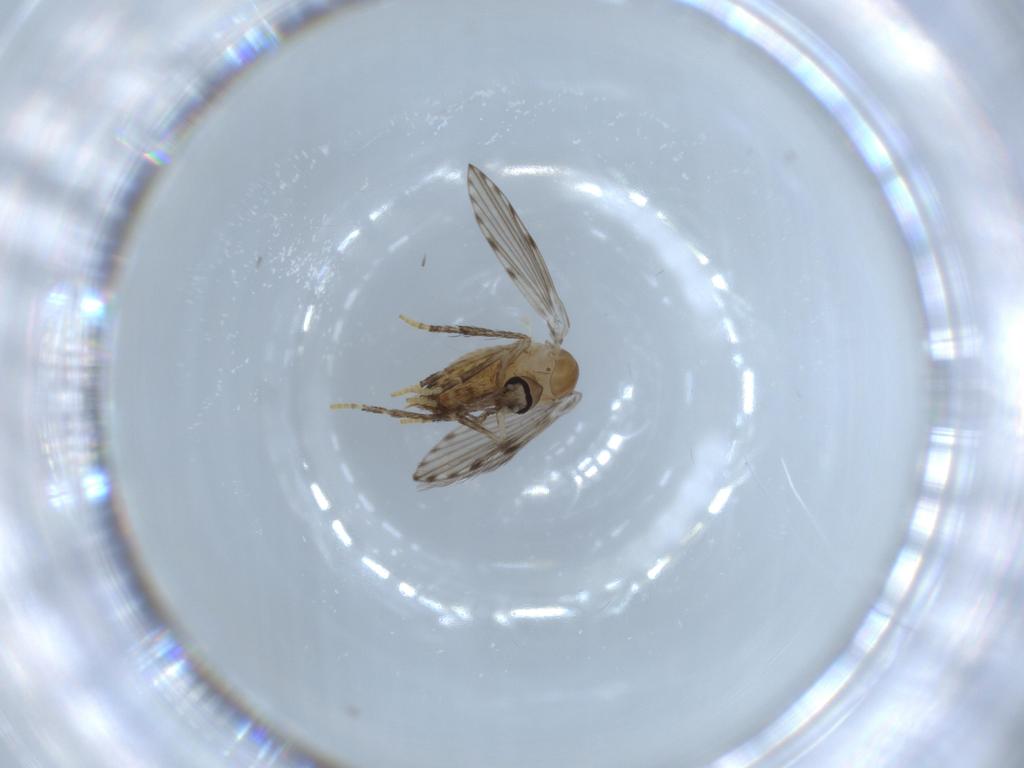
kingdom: Animalia
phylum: Arthropoda
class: Insecta
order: Diptera
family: Psychodidae
